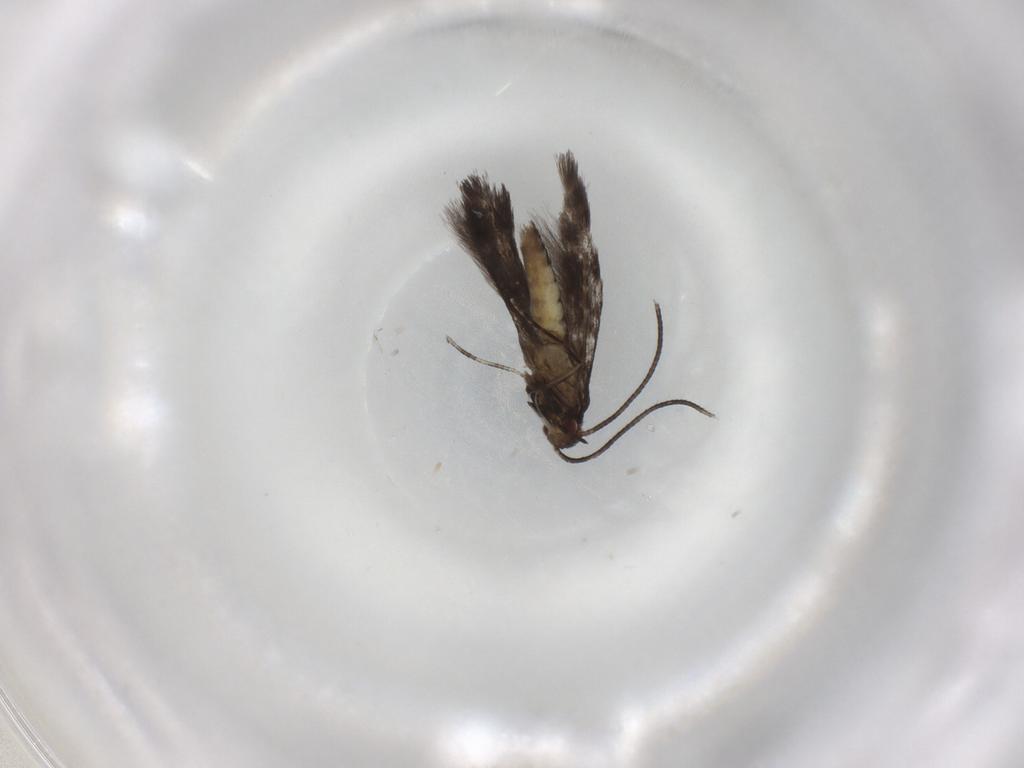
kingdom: Animalia
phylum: Arthropoda
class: Insecta
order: Lepidoptera
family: Gracillariidae
